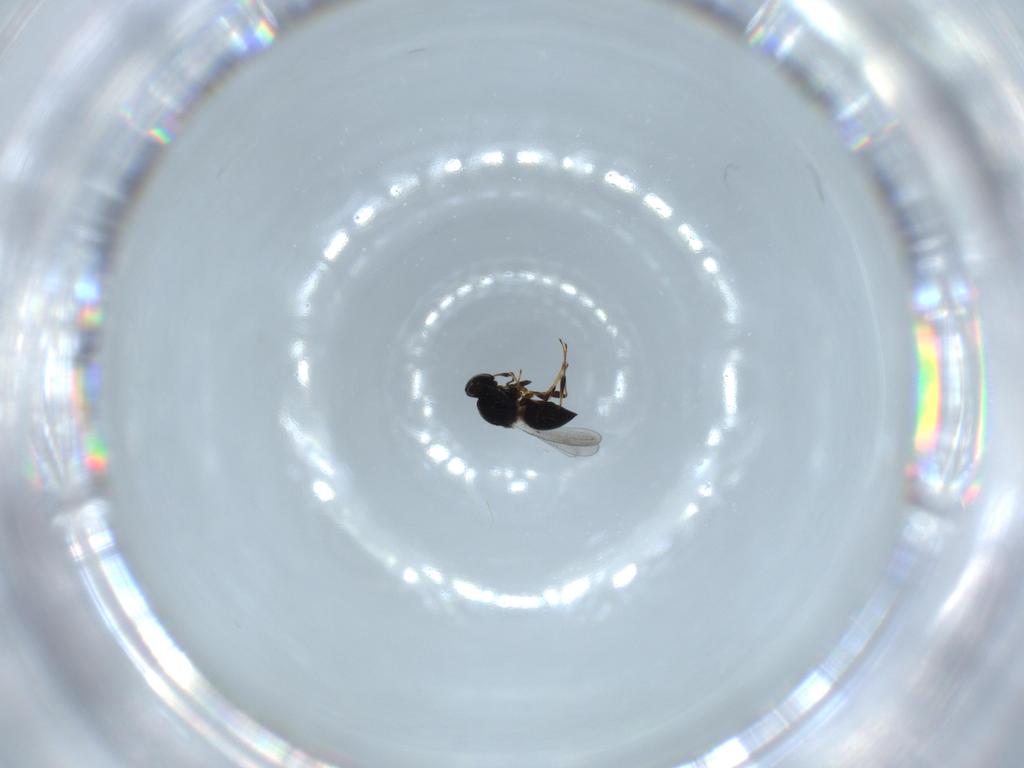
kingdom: Animalia
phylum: Arthropoda
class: Insecta
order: Hymenoptera
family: Platygastridae
